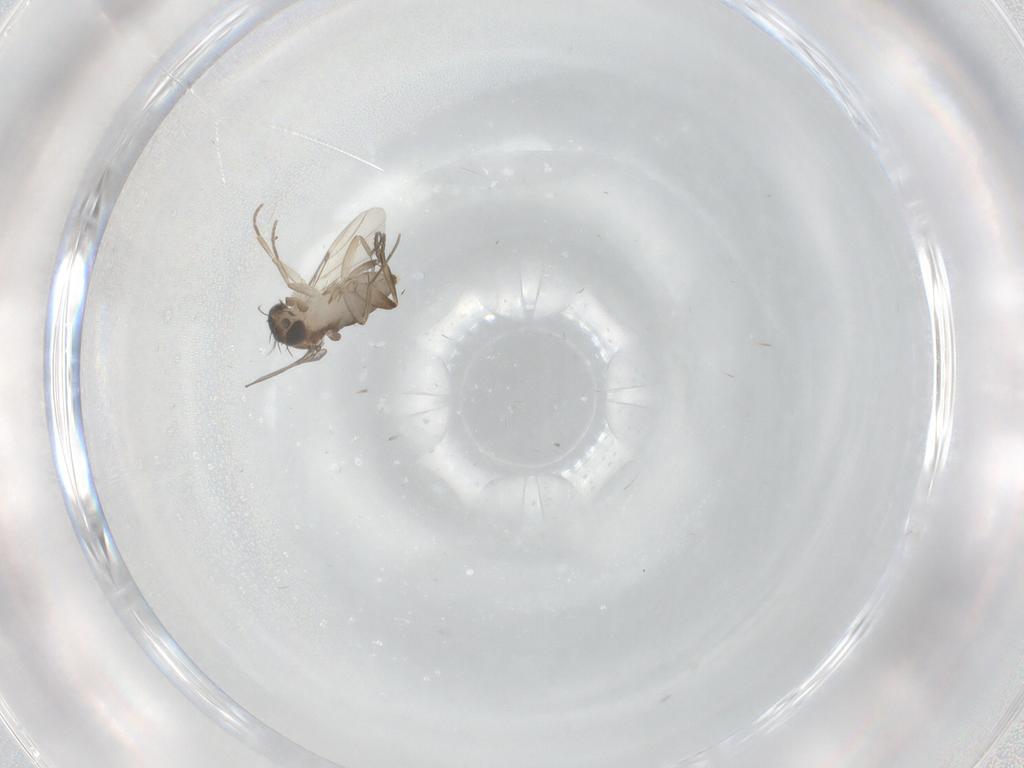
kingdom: Animalia
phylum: Arthropoda
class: Insecta
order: Diptera
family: Phoridae
